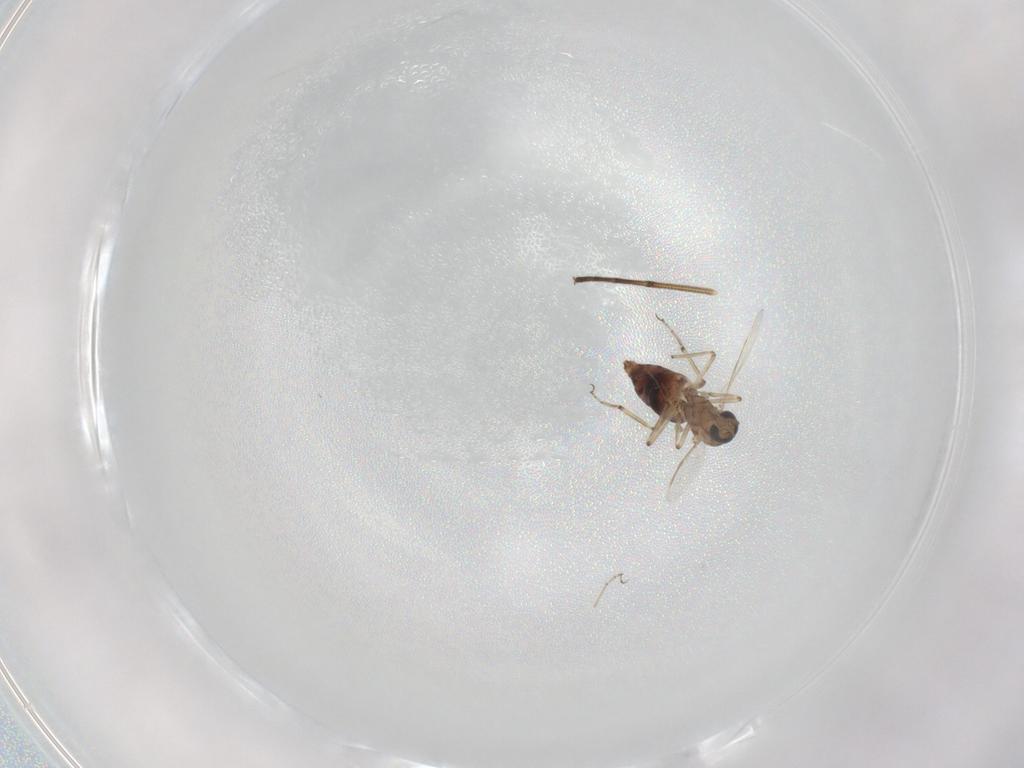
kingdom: Animalia
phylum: Arthropoda
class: Insecta
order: Diptera
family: Ceratopogonidae
